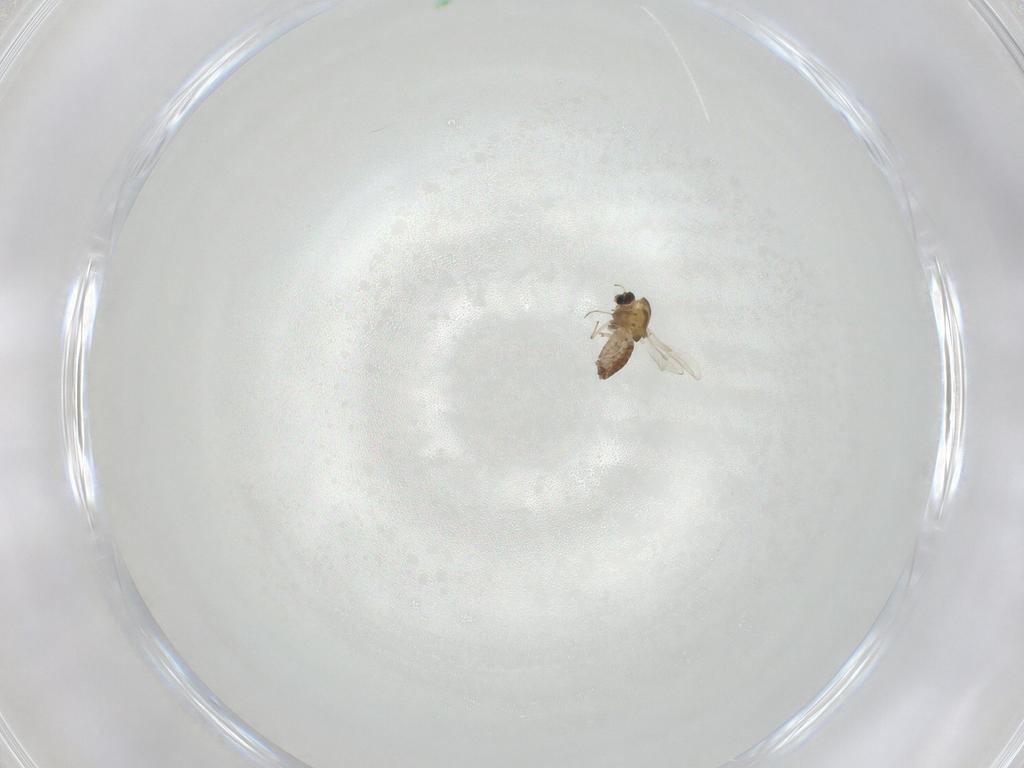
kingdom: Animalia
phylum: Arthropoda
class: Insecta
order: Diptera
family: Chironomidae
